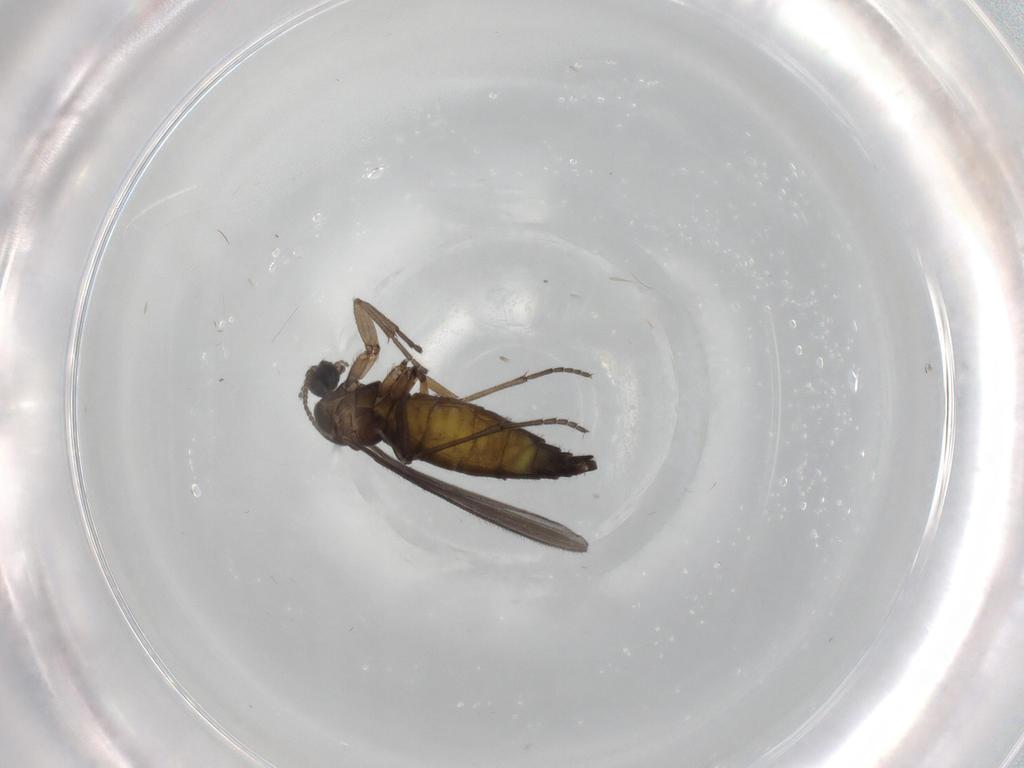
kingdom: Animalia
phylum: Arthropoda
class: Insecta
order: Diptera
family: Sciaridae
